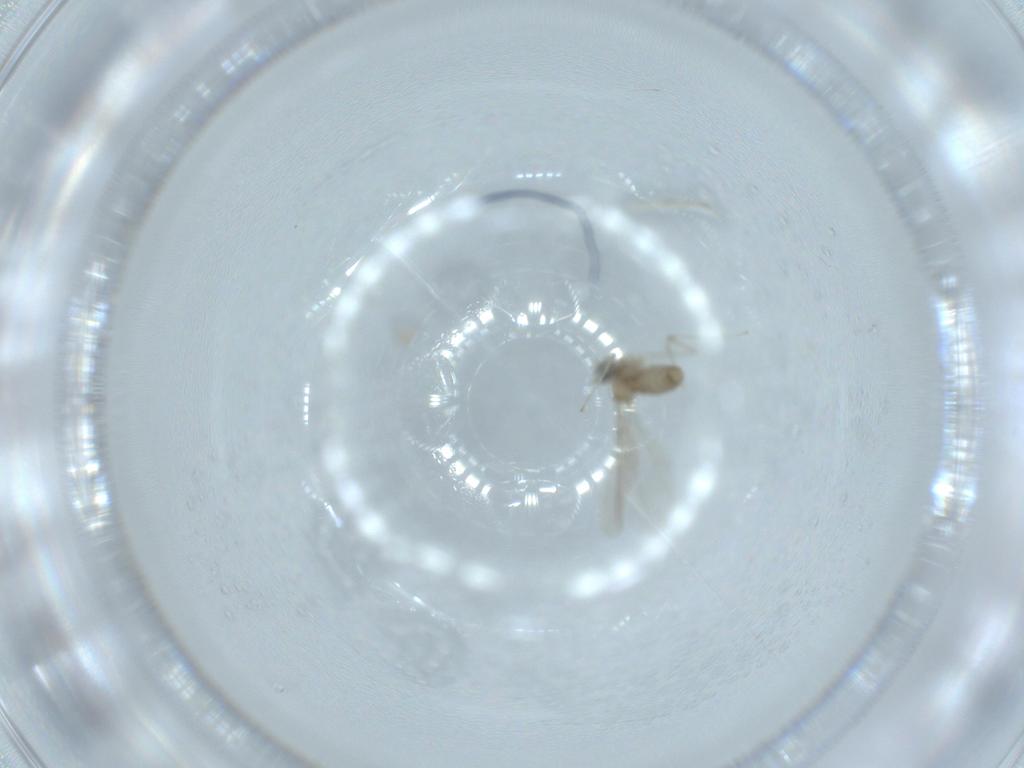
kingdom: Animalia
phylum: Arthropoda
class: Insecta
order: Diptera
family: Cecidomyiidae
